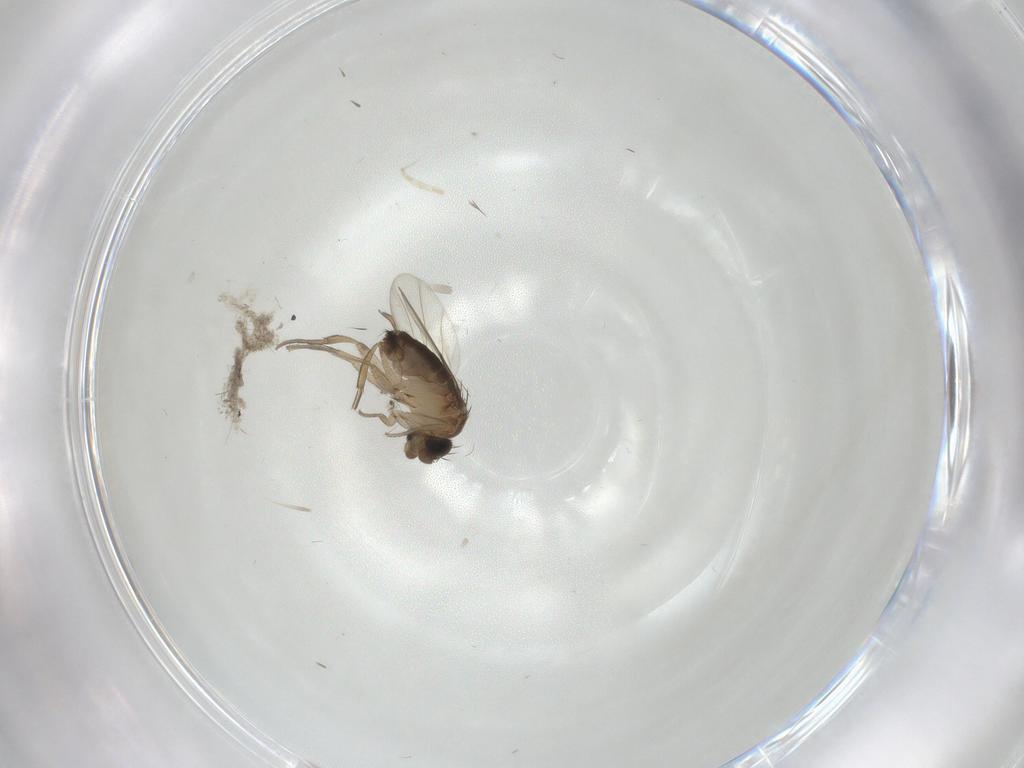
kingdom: Animalia
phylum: Arthropoda
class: Insecta
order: Diptera
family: Phoridae
